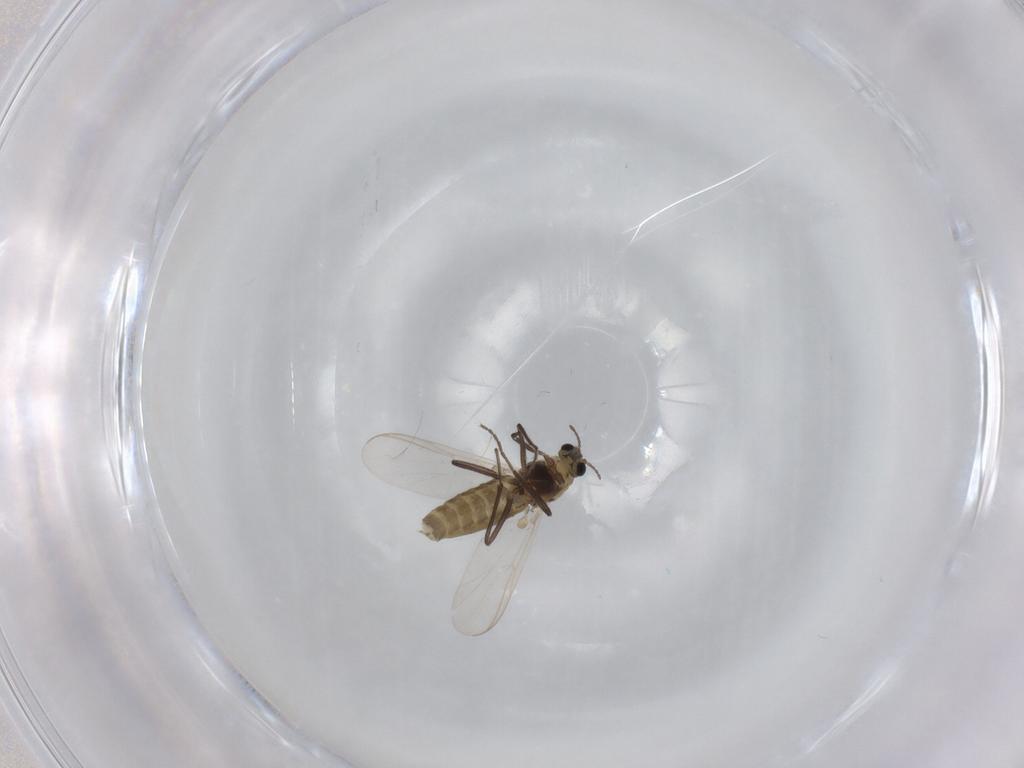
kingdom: Animalia
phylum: Arthropoda
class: Insecta
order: Diptera
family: Chironomidae
